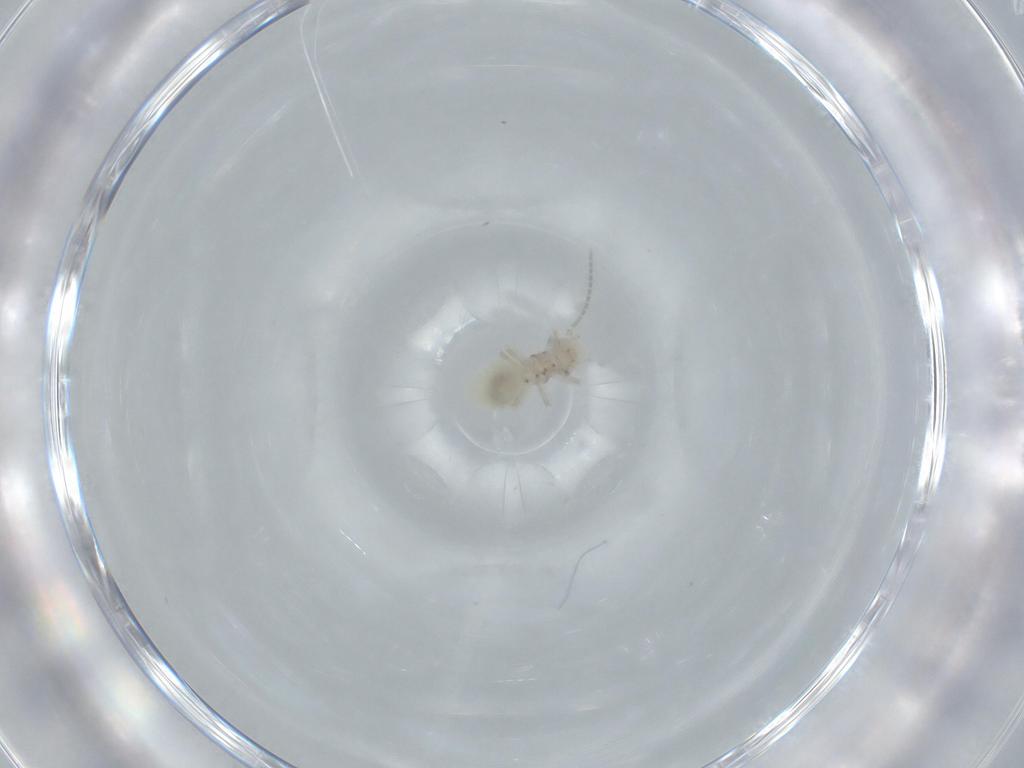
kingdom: Animalia
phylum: Arthropoda
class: Insecta
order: Psocodea
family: Amphipsocidae
